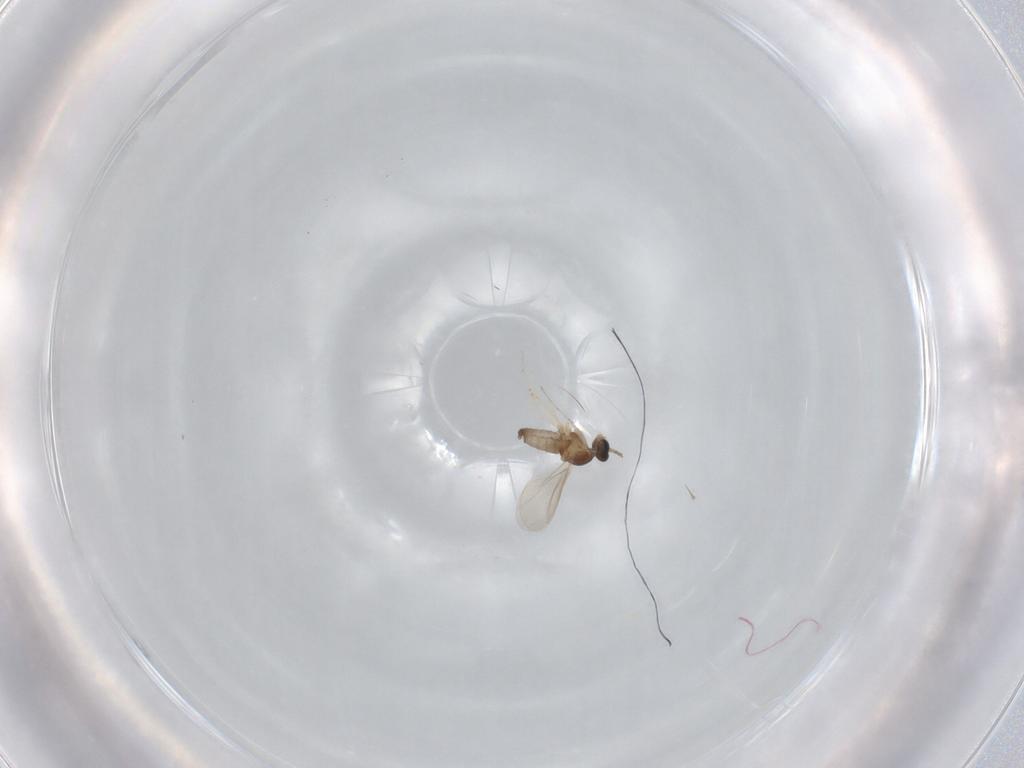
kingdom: Animalia
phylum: Arthropoda
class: Insecta
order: Diptera
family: Cecidomyiidae
